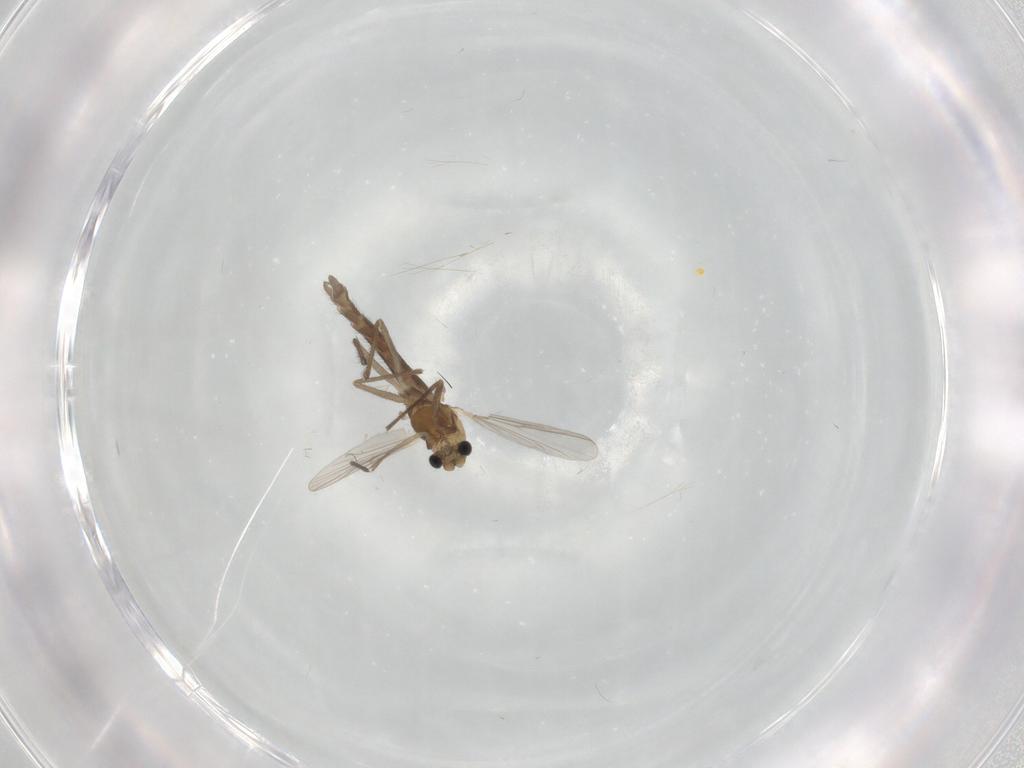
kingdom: Animalia
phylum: Arthropoda
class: Insecta
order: Diptera
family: Chironomidae
